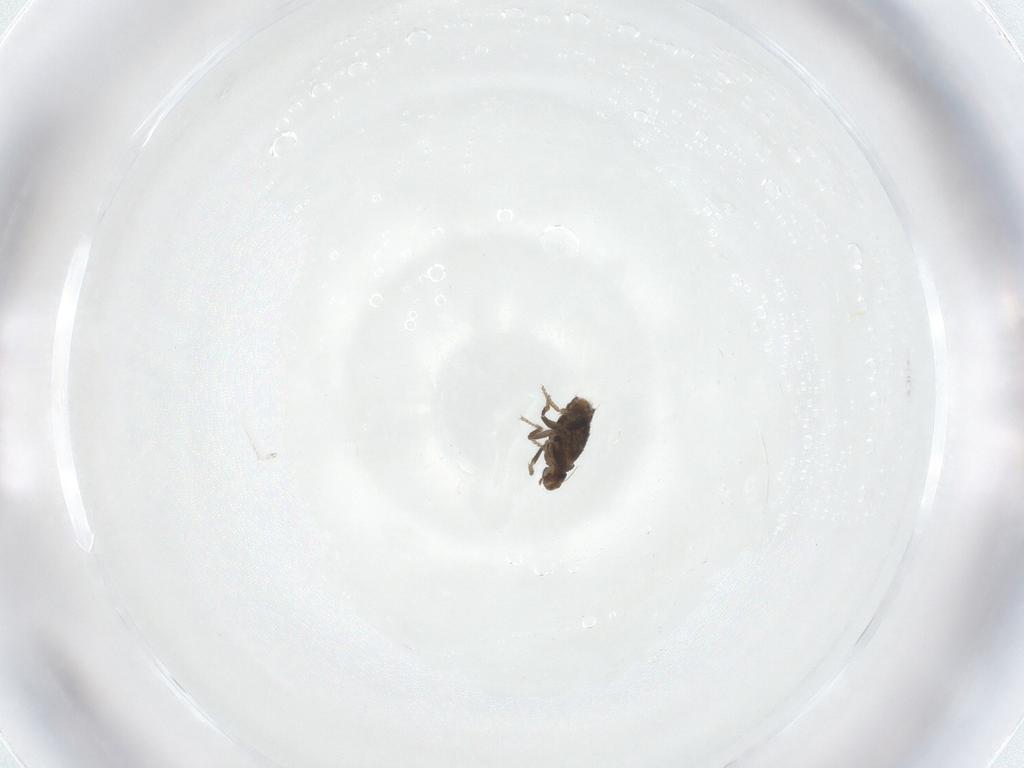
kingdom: Animalia
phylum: Arthropoda
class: Insecta
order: Diptera
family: Phoridae
